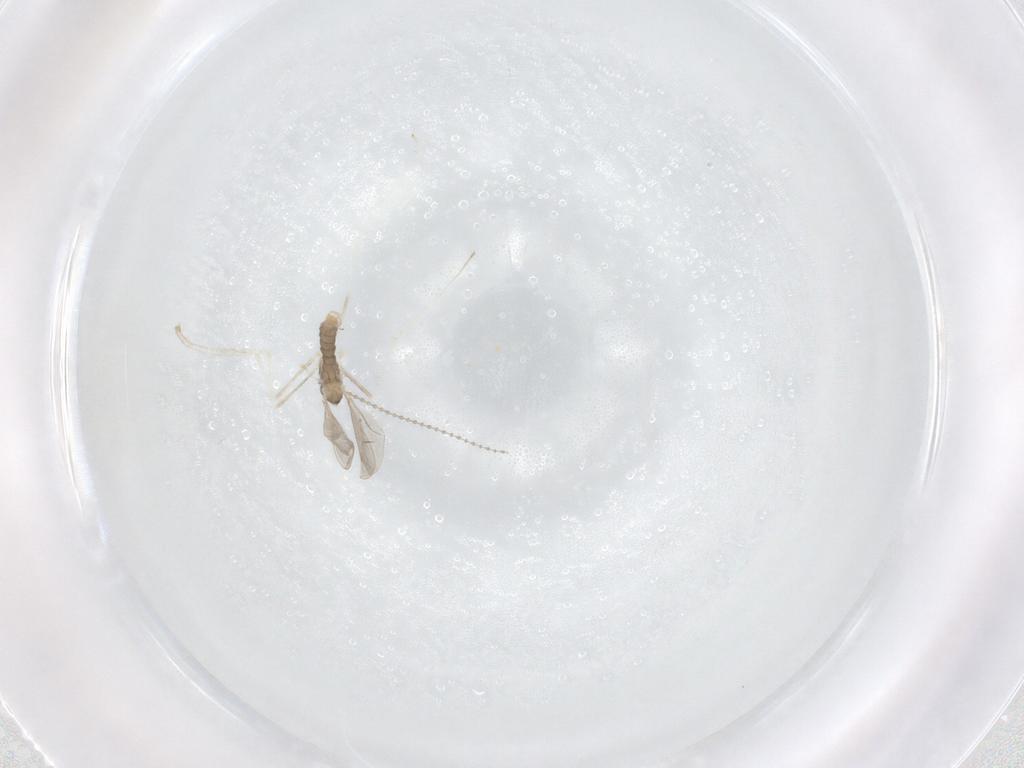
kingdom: Animalia
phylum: Arthropoda
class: Insecta
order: Diptera
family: Cecidomyiidae
